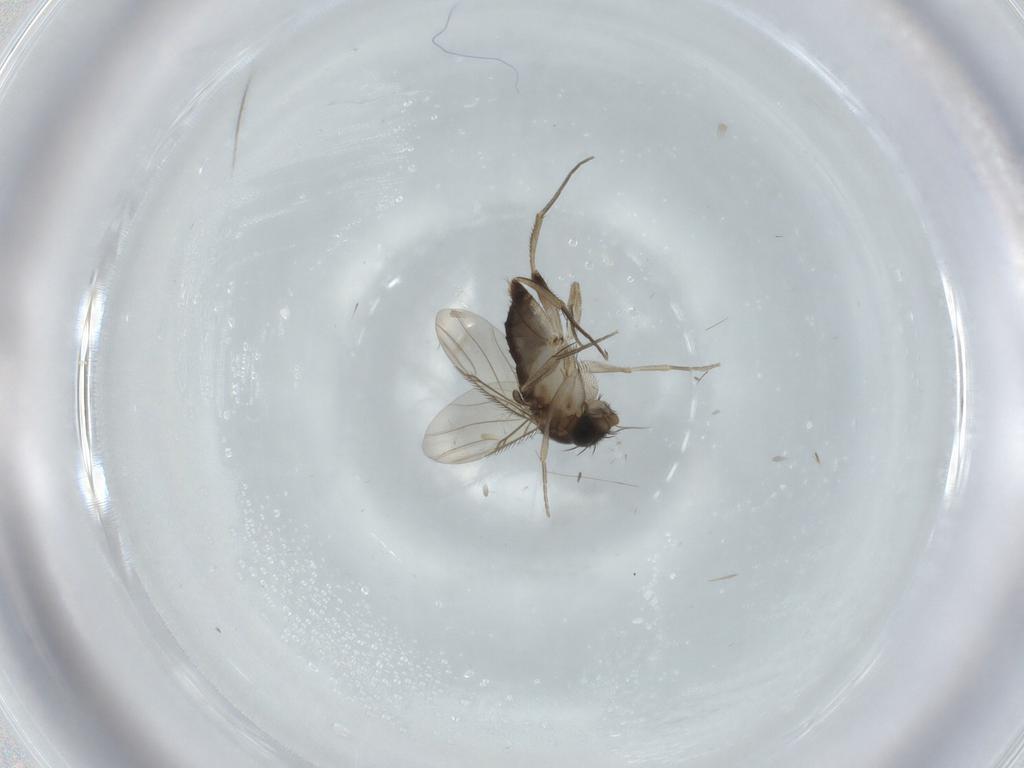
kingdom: Animalia
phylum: Arthropoda
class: Insecta
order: Diptera
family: Phoridae
